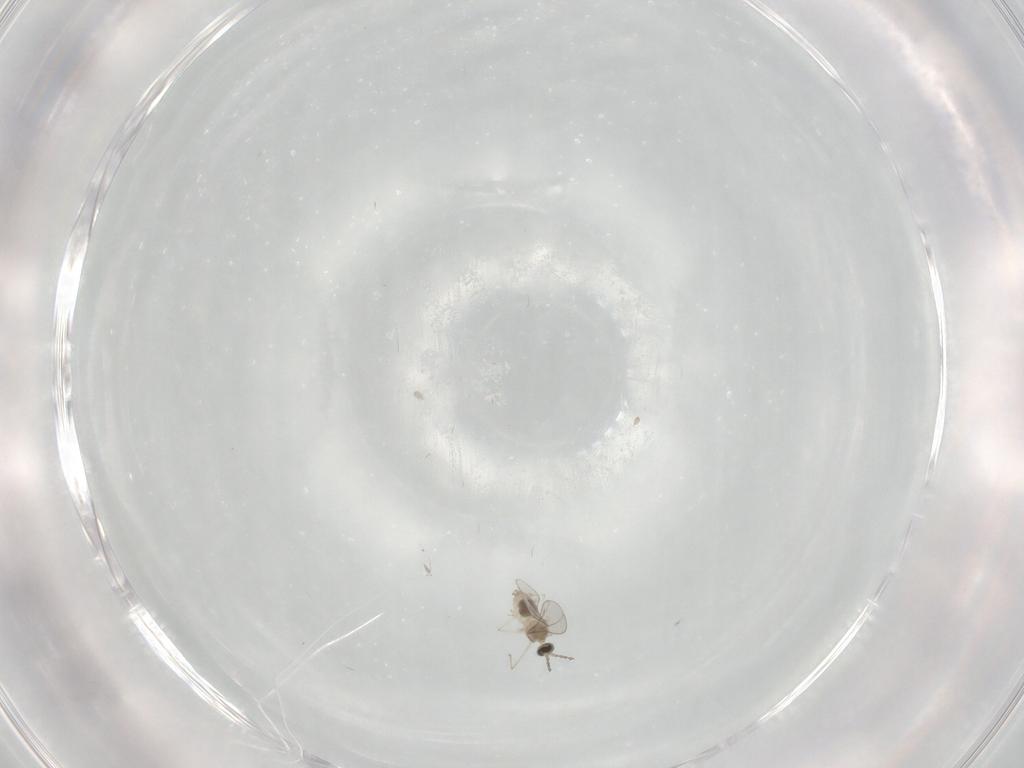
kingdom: Animalia
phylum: Arthropoda
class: Insecta
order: Diptera
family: Cecidomyiidae
